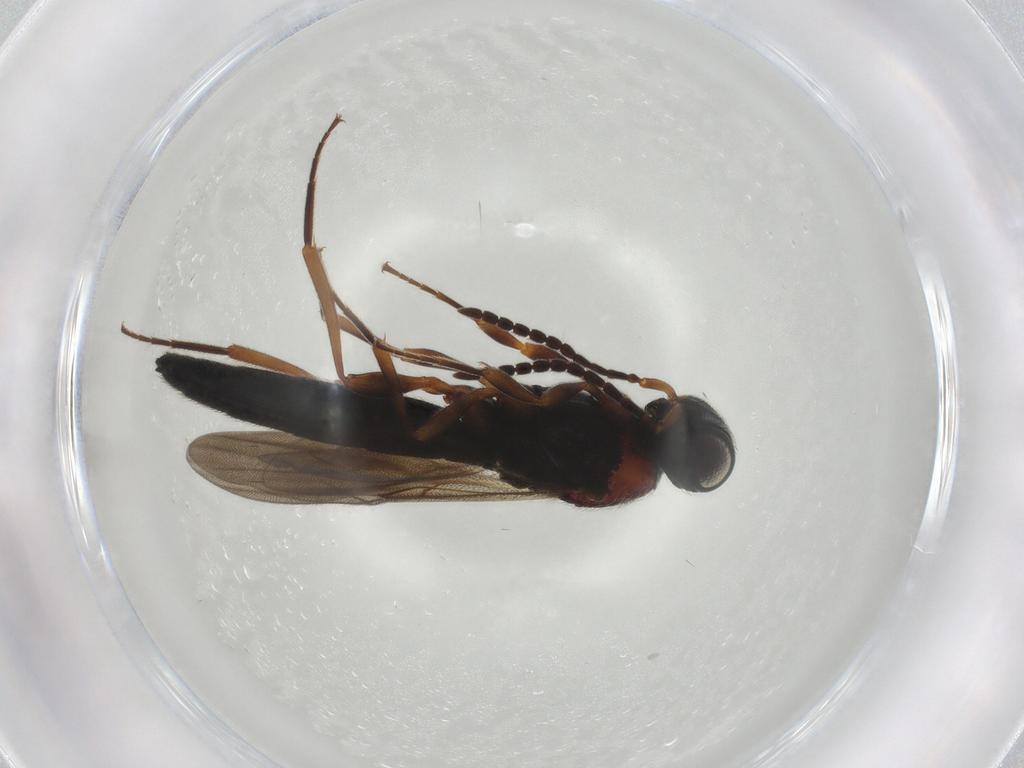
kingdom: Animalia
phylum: Arthropoda
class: Insecta
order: Hymenoptera
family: Scelionidae
